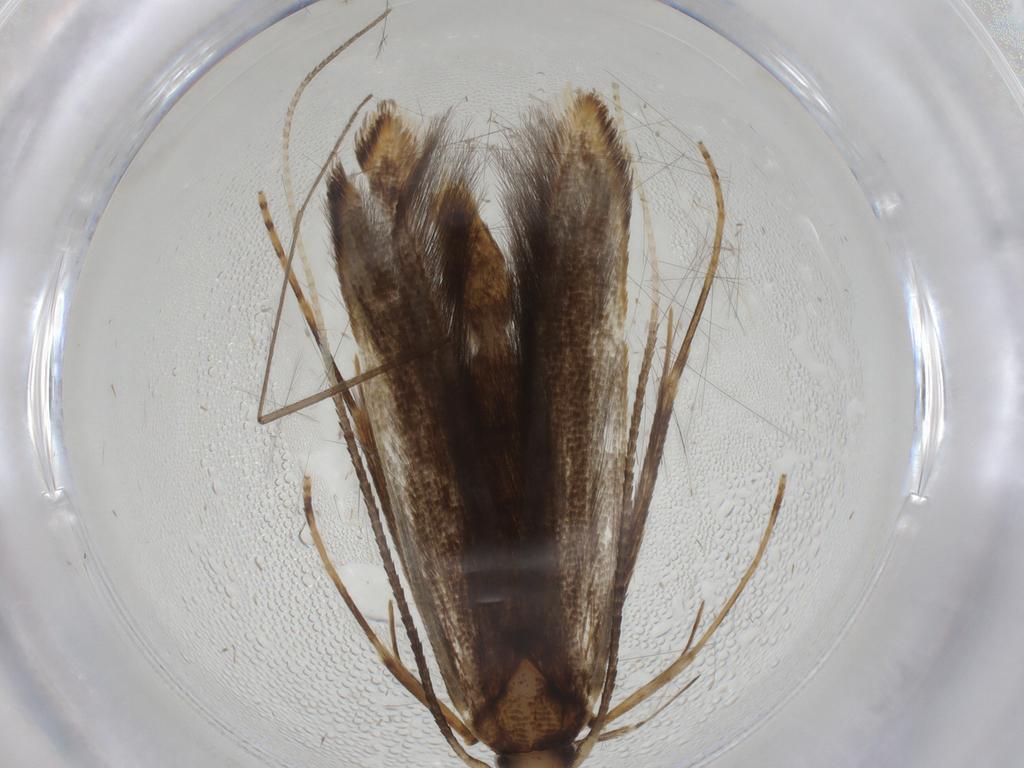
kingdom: Animalia
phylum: Arthropoda
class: Insecta
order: Lepidoptera
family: Pterolonchidae
